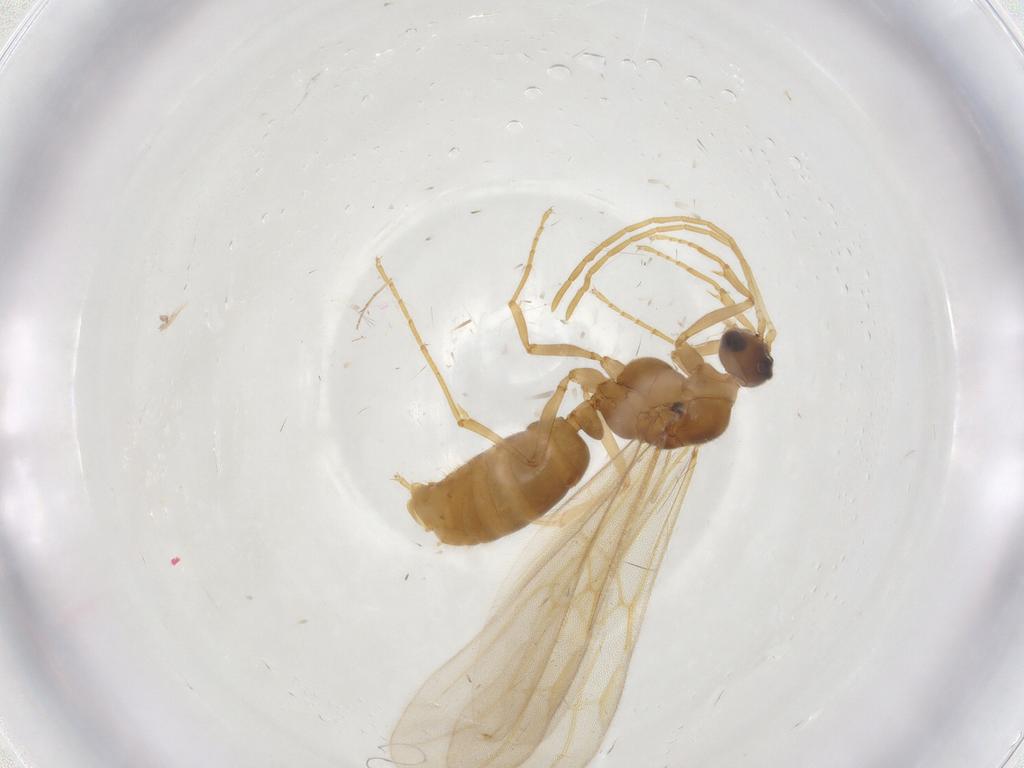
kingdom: Animalia
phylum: Arthropoda
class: Insecta
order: Hymenoptera
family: Formicidae
